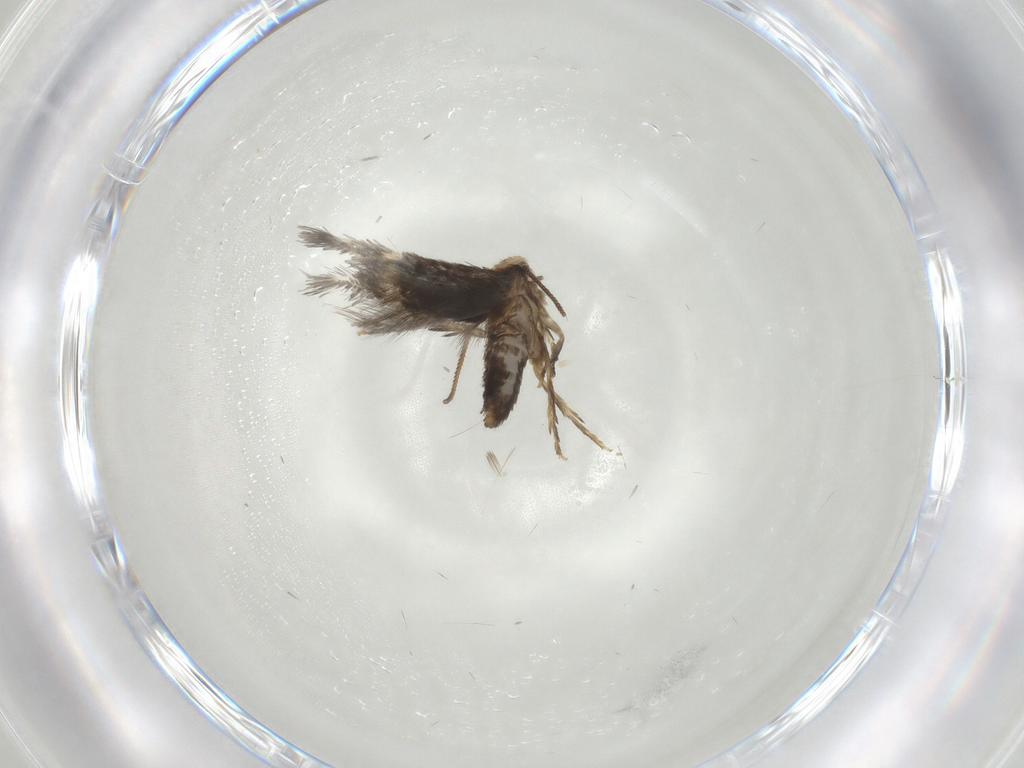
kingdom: Animalia
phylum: Arthropoda
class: Insecta
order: Lepidoptera
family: Nepticulidae
